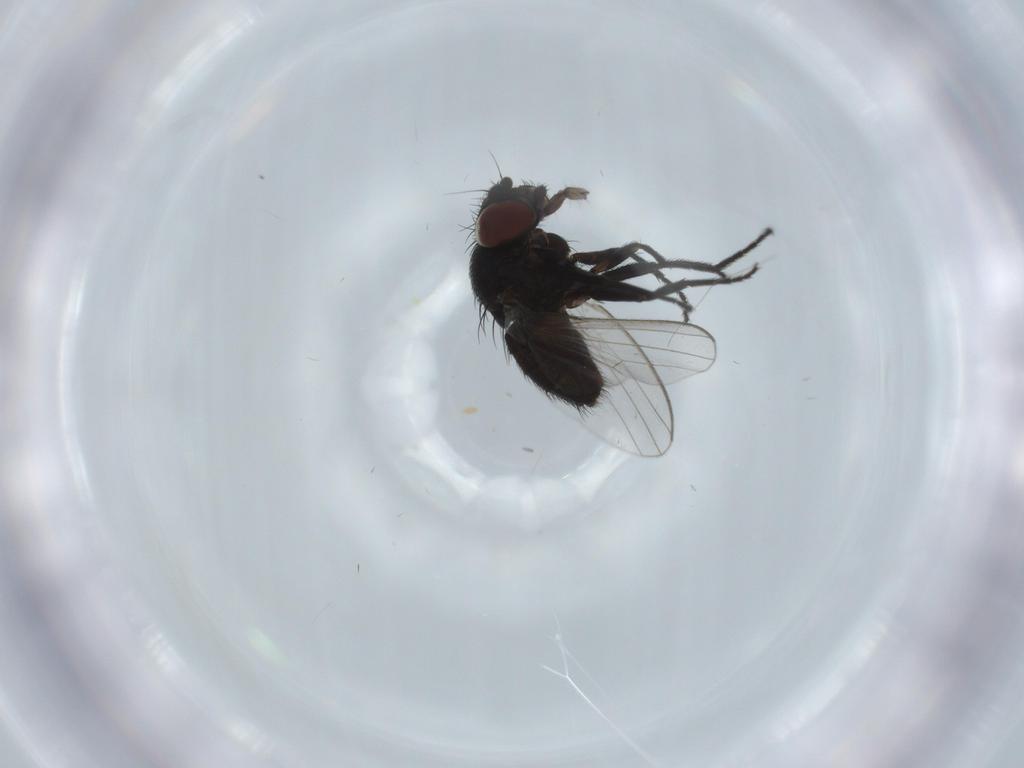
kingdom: Animalia
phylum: Arthropoda
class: Insecta
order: Diptera
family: Milichiidae
